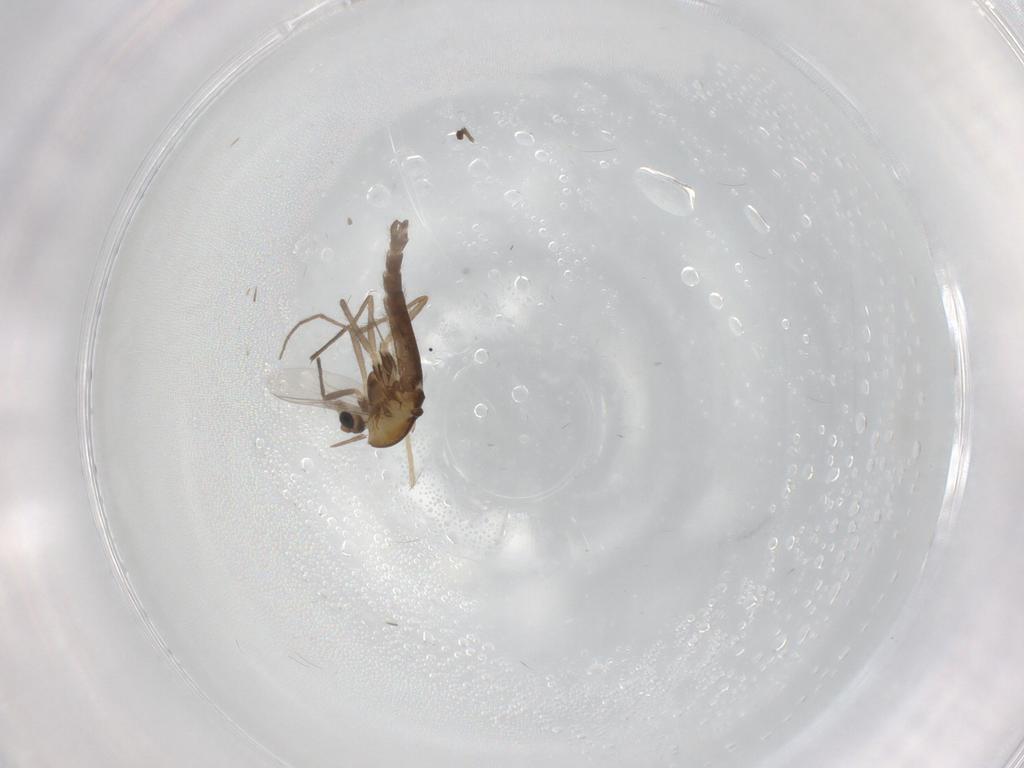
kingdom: Animalia
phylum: Arthropoda
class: Insecta
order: Diptera
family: Chironomidae
